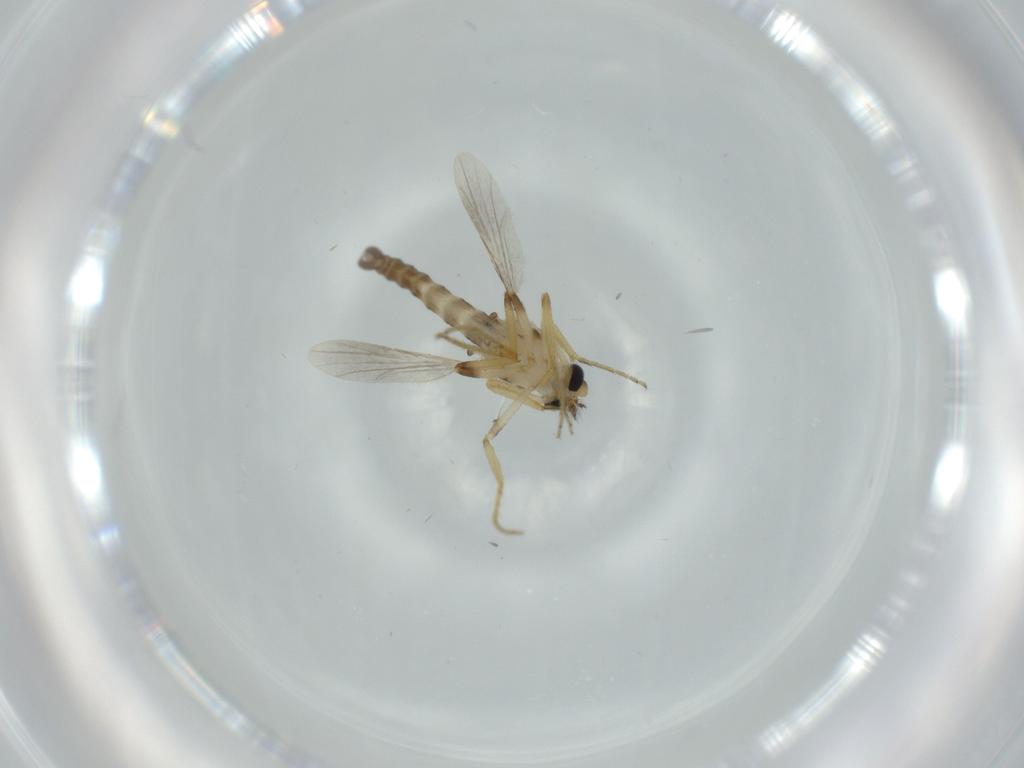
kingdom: Animalia
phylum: Arthropoda
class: Insecta
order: Diptera
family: Ceratopogonidae
